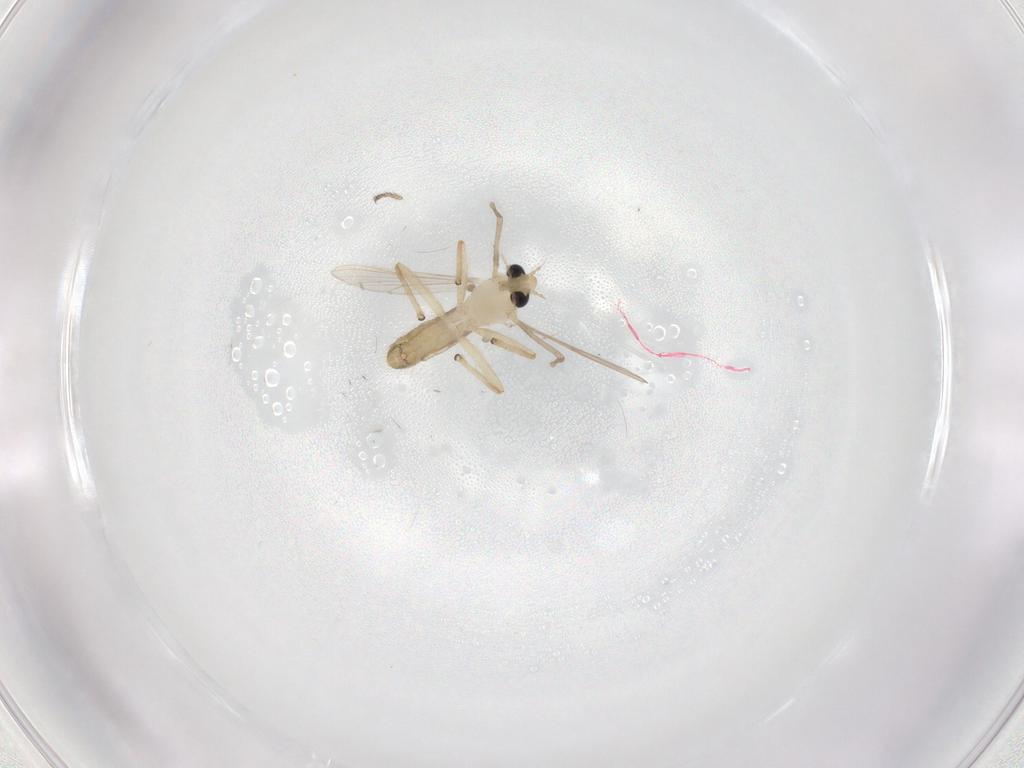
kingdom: Animalia
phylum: Arthropoda
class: Insecta
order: Diptera
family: Chironomidae
